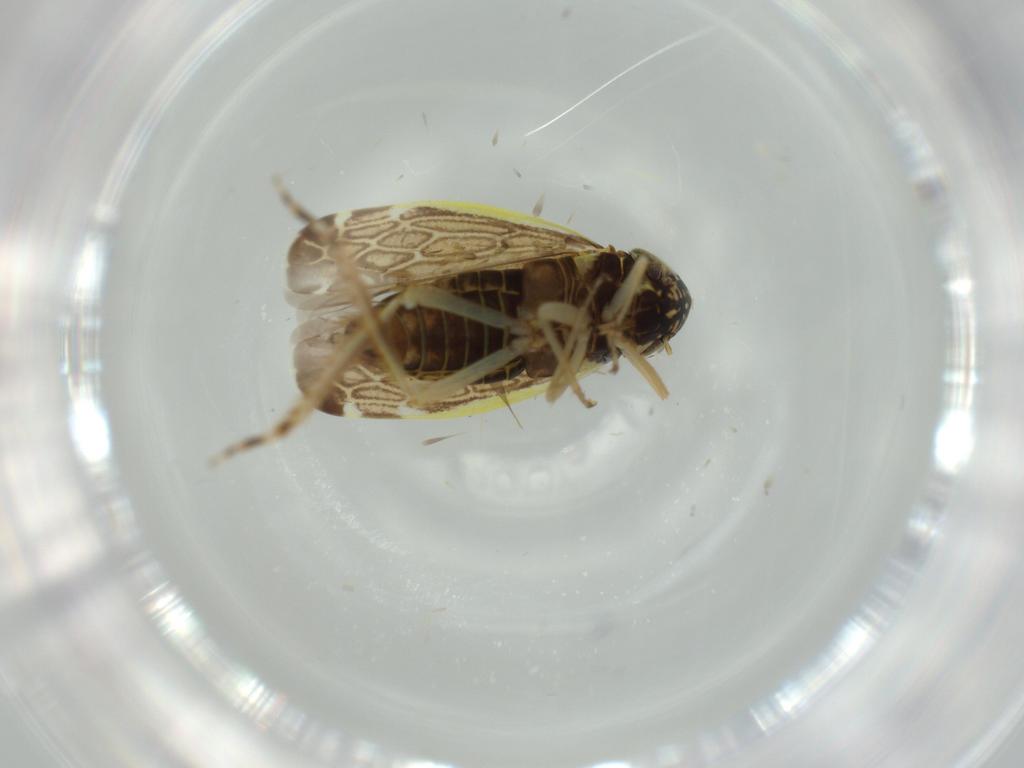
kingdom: Animalia
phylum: Arthropoda
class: Insecta
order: Hemiptera
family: Cicadellidae
